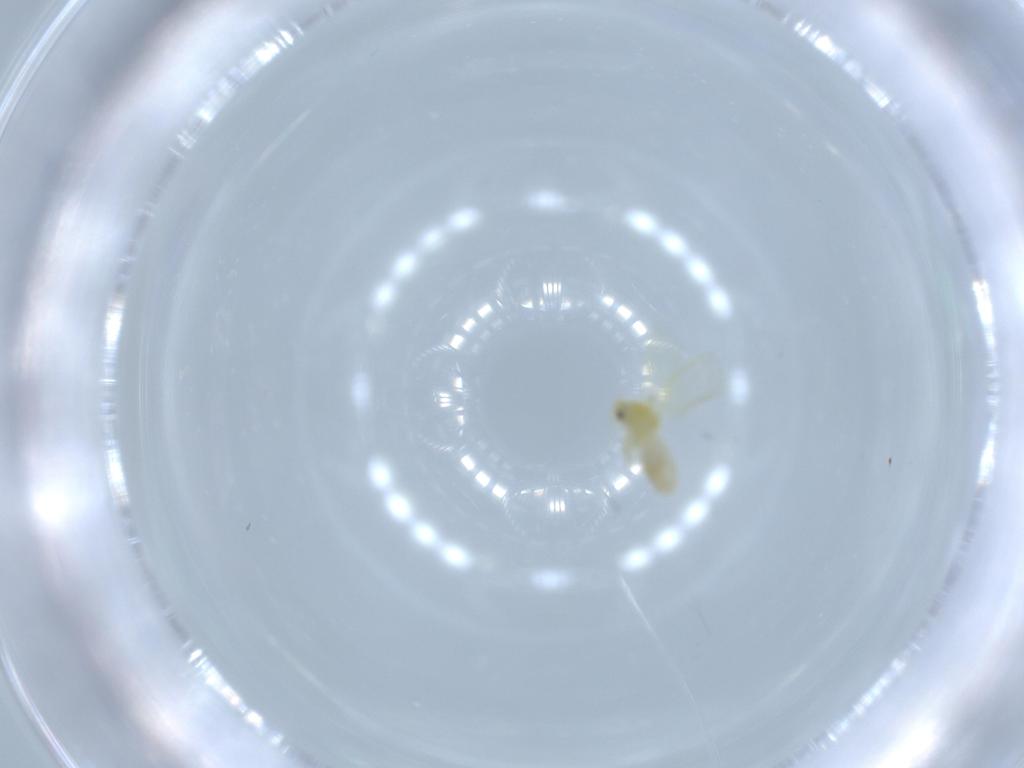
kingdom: Animalia
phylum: Arthropoda
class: Insecta
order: Hemiptera
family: Aleyrodidae
